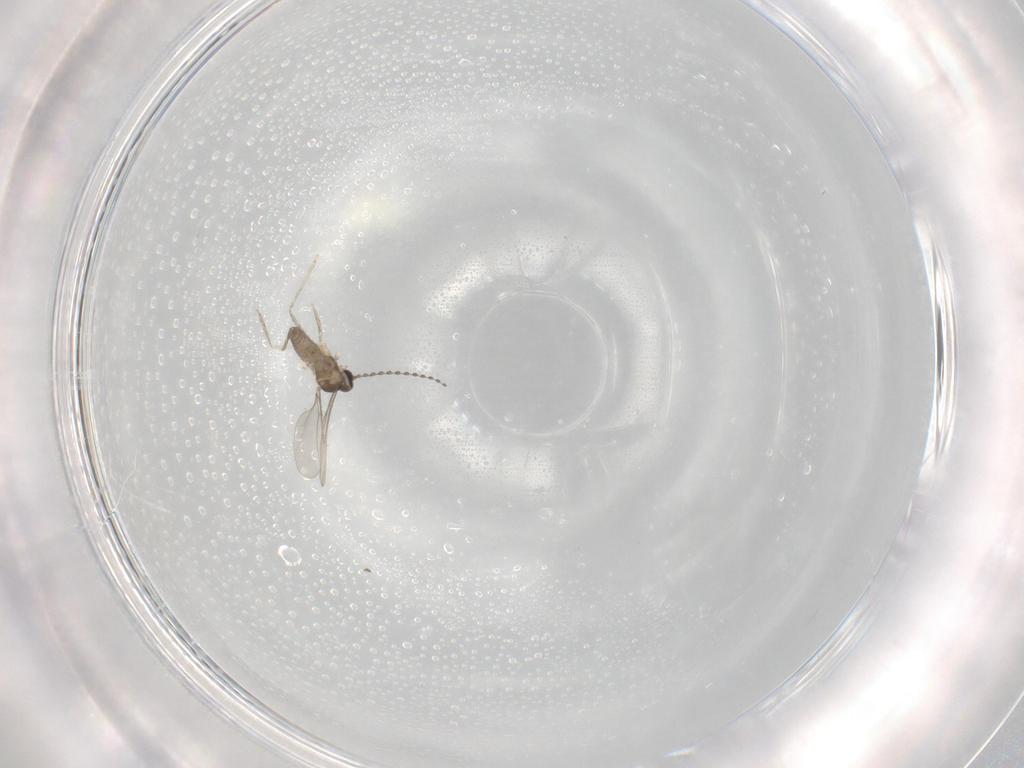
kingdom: Animalia
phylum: Arthropoda
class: Insecta
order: Diptera
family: Cecidomyiidae
